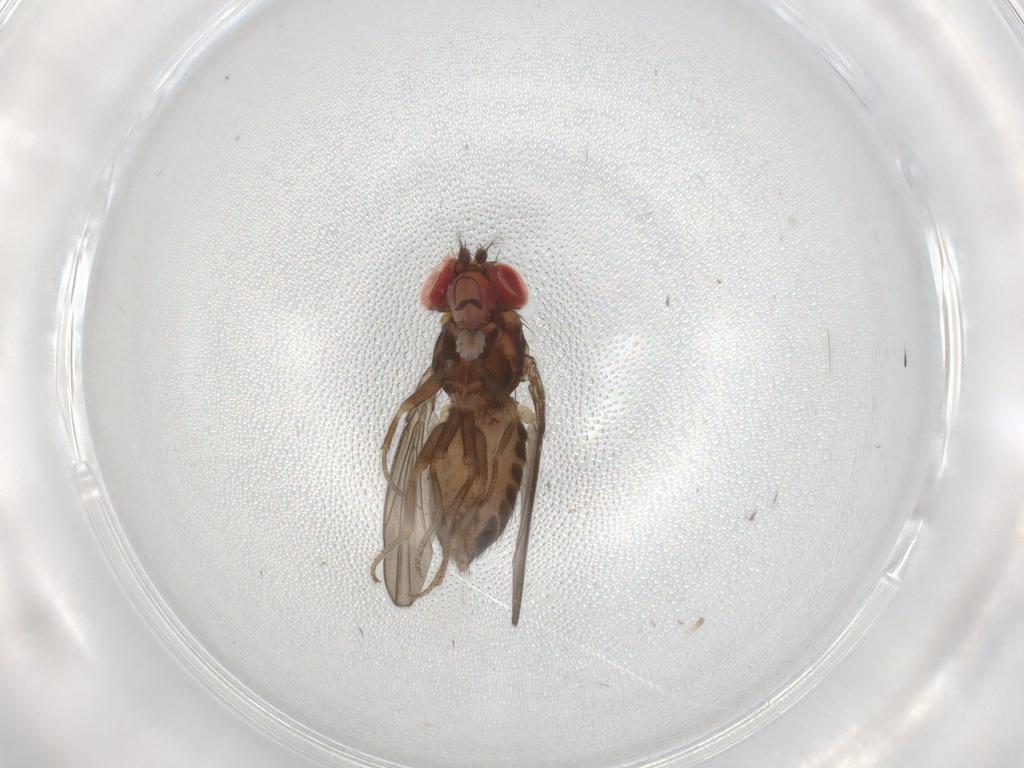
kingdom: Animalia
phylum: Arthropoda
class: Insecta
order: Diptera
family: Drosophilidae
